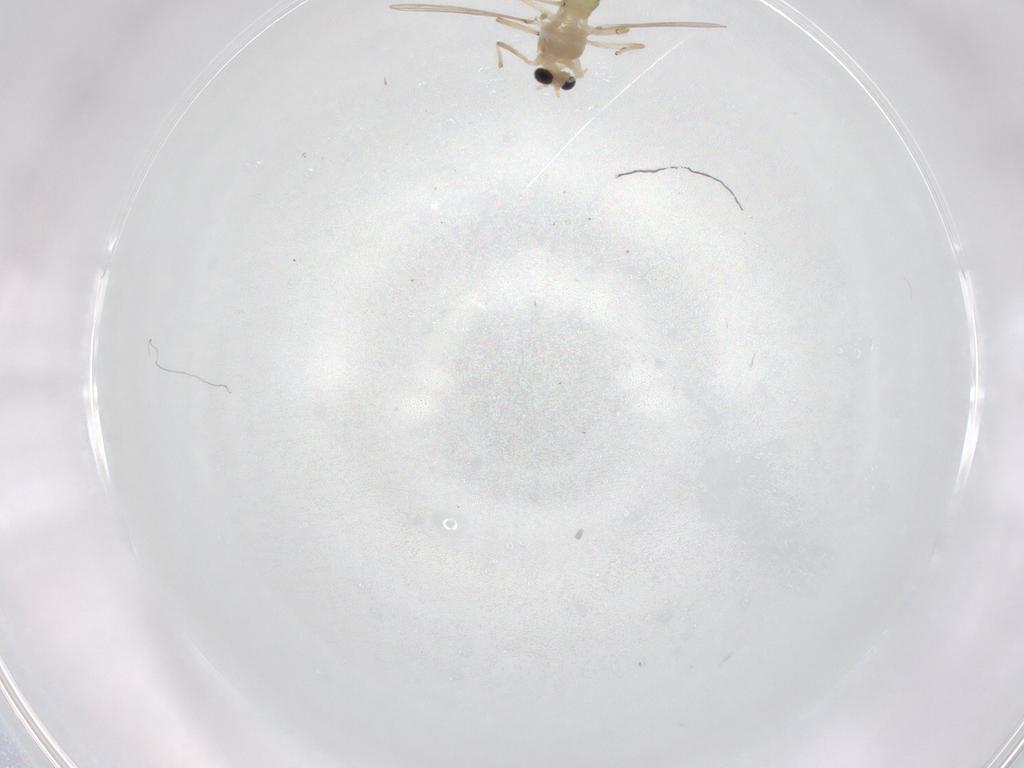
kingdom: Animalia
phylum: Arthropoda
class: Insecta
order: Diptera
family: Chironomidae
